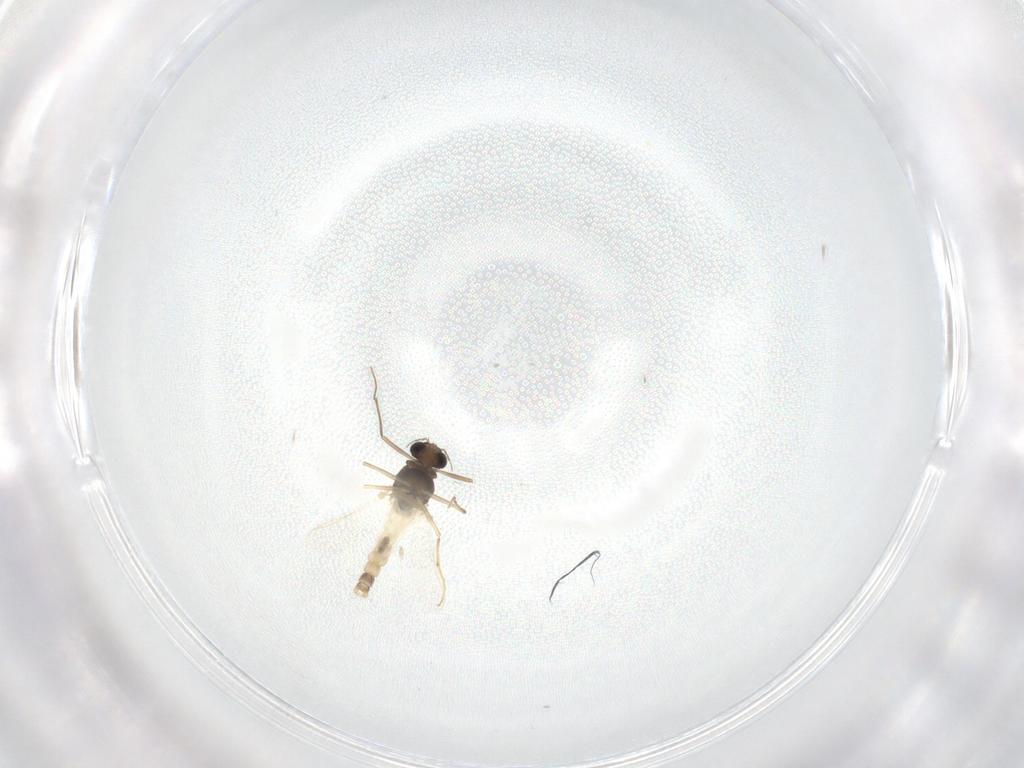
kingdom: Animalia
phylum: Arthropoda
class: Insecta
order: Diptera
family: Chironomidae
